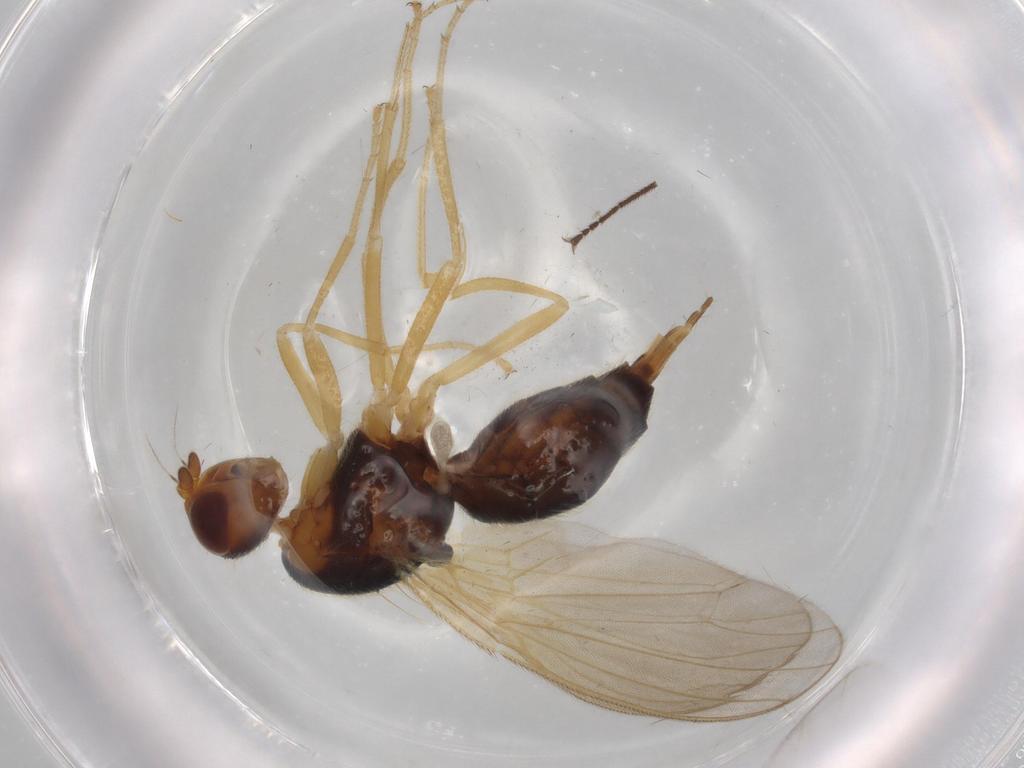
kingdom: Animalia
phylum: Arthropoda
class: Insecta
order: Diptera
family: Hybotidae
